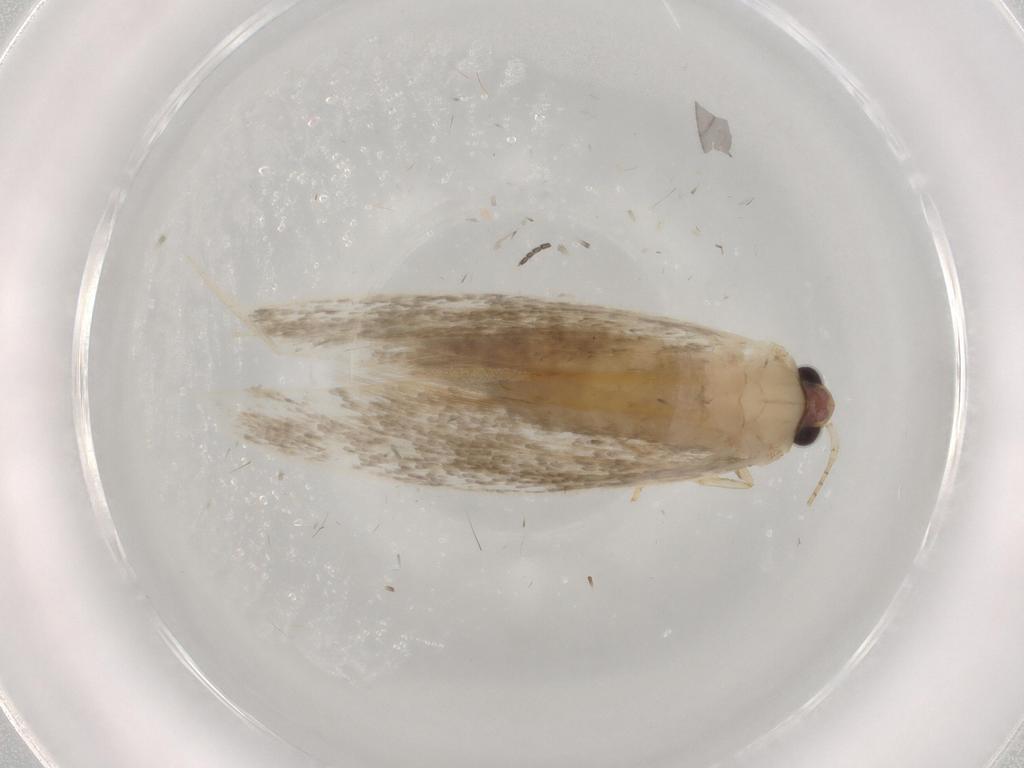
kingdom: Animalia
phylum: Arthropoda
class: Insecta
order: Lepidoptera
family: Tineidae
